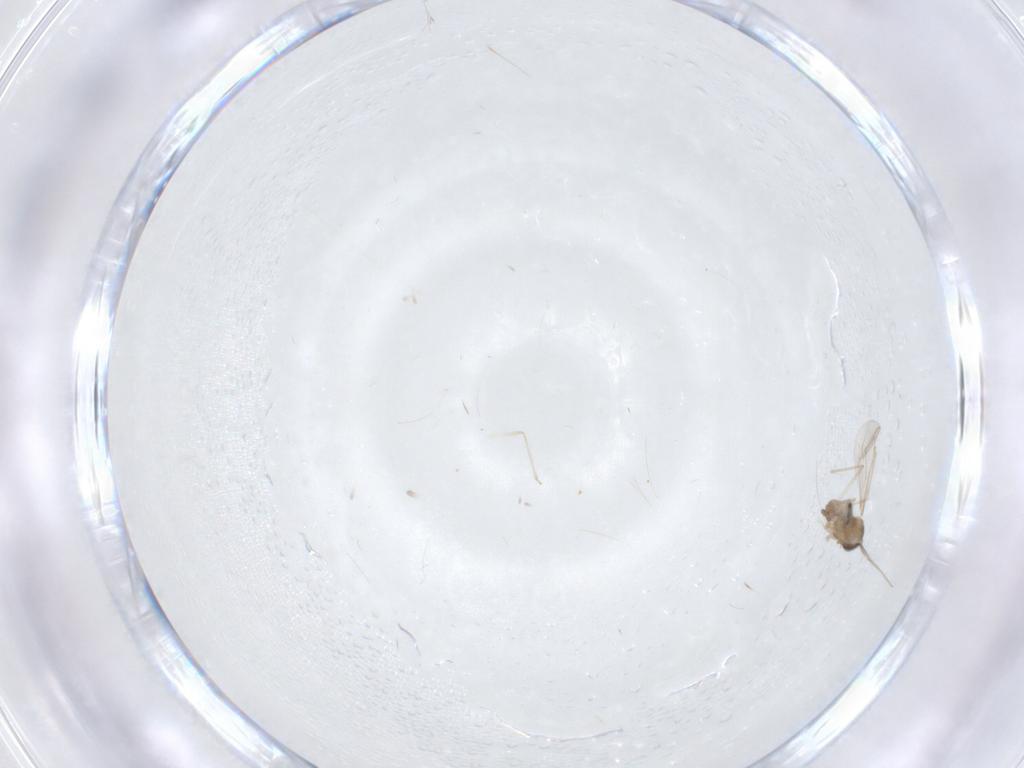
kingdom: Animalia
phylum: Arthropoda
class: Insecta
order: Diptera
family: Cecidomyiidae
